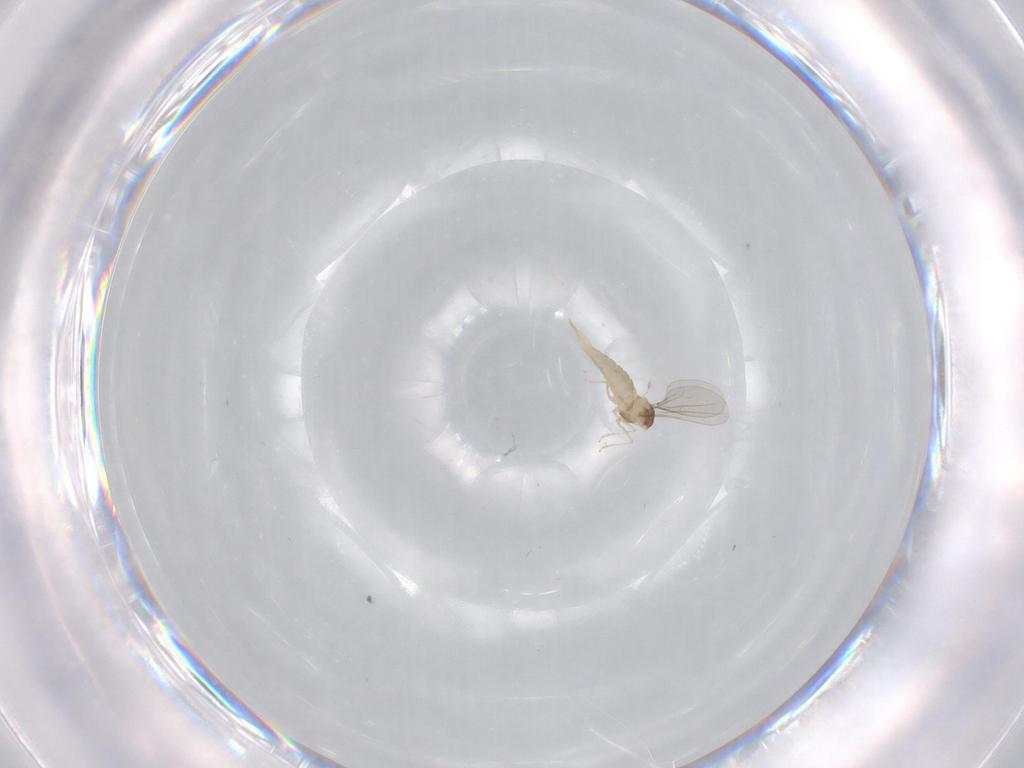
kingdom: Animalia
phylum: Arthropoda
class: Insecta
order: Diptera
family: Cecidomyiidae
